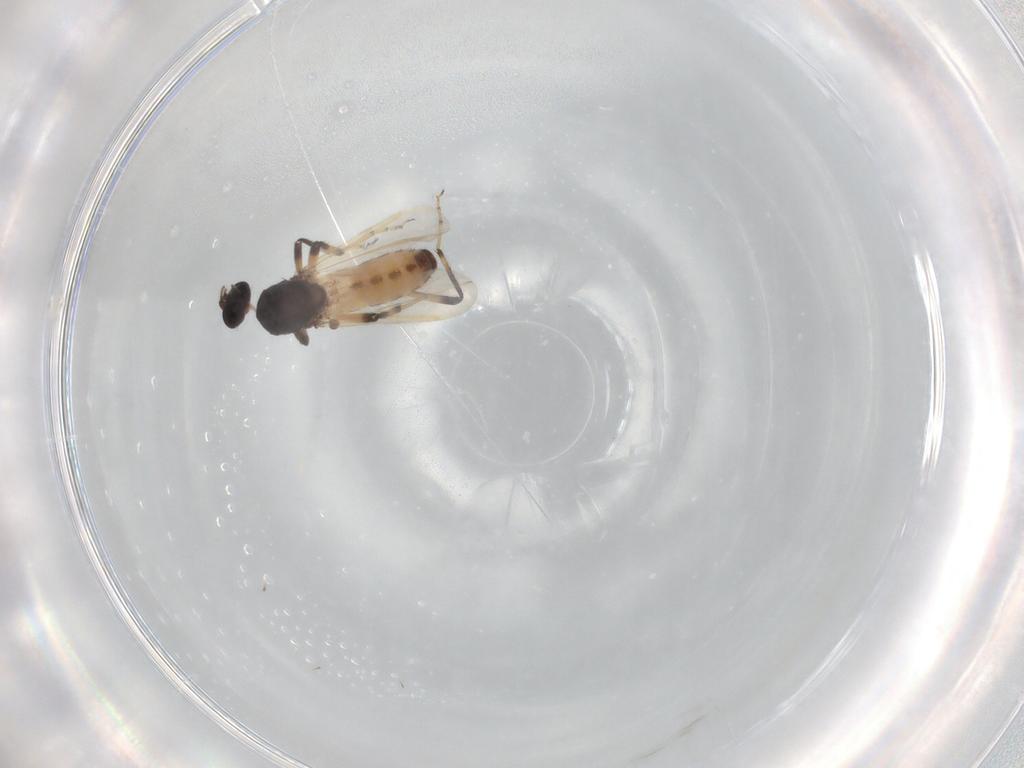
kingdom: Animalia
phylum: Arthropoda
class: Insecta
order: Diptera
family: Ceratopogonidae
